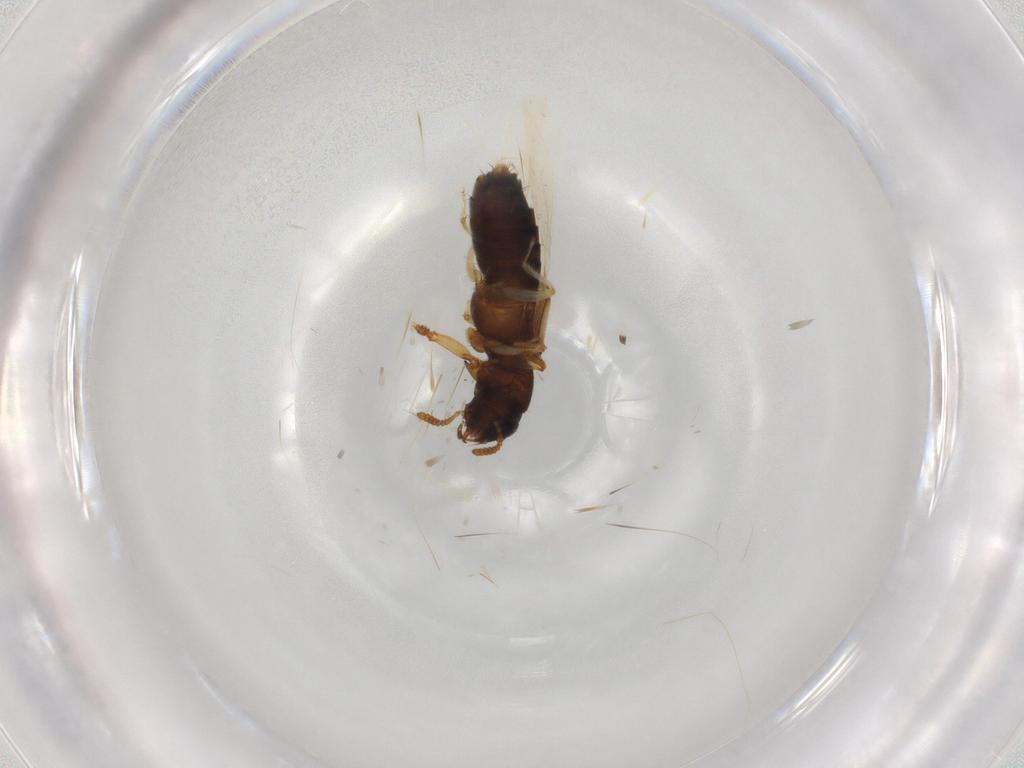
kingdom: Animalia
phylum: Arthropoda
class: Insecta
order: Coleoptera
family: Staphylinidae
